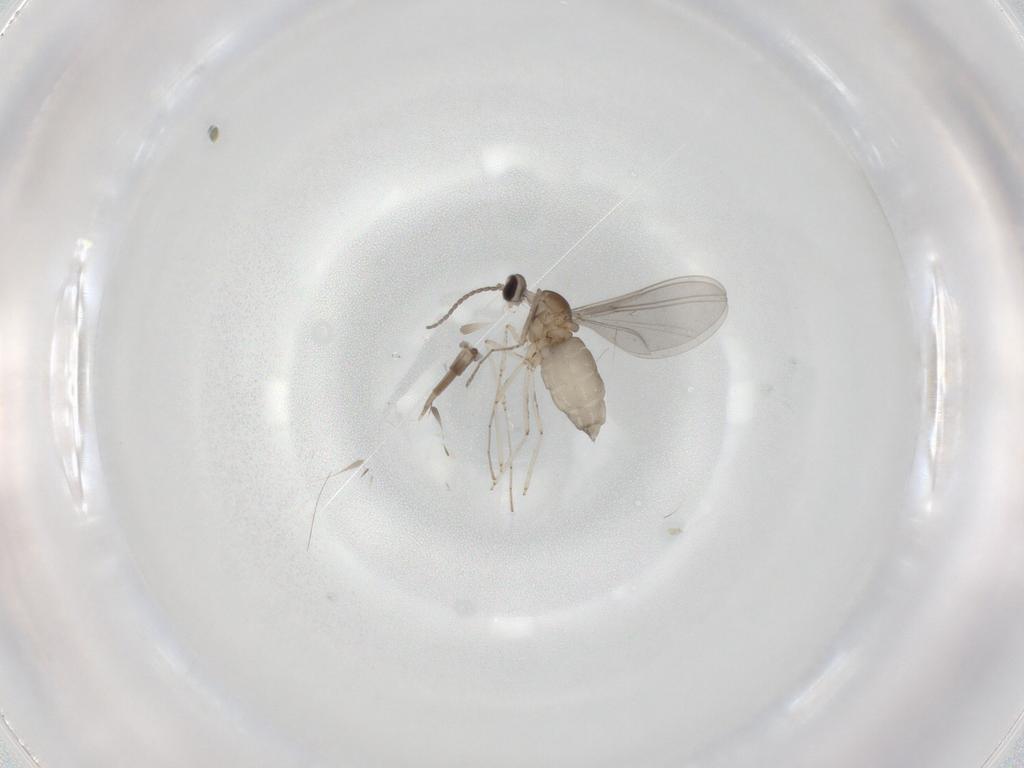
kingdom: Animalia
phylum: Arthropoda
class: Insecta
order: Diptera
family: Cecidomyiidae
